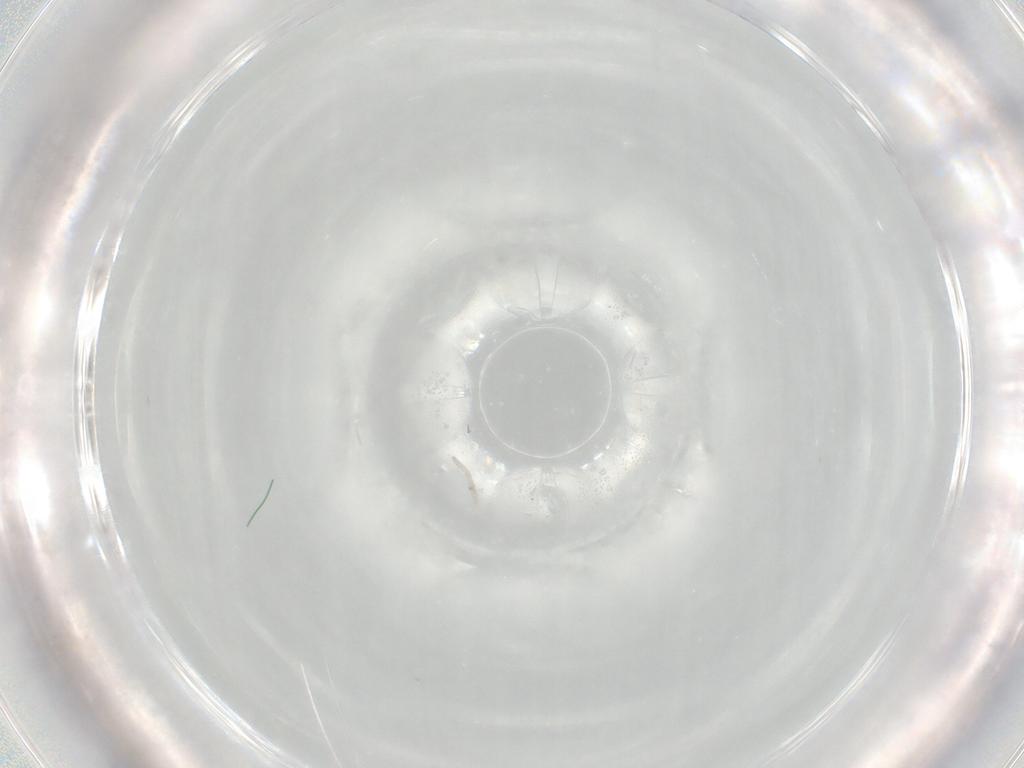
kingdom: Animalia
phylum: Arthropoda
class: Insecta
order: Diptera
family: Chironomidae
